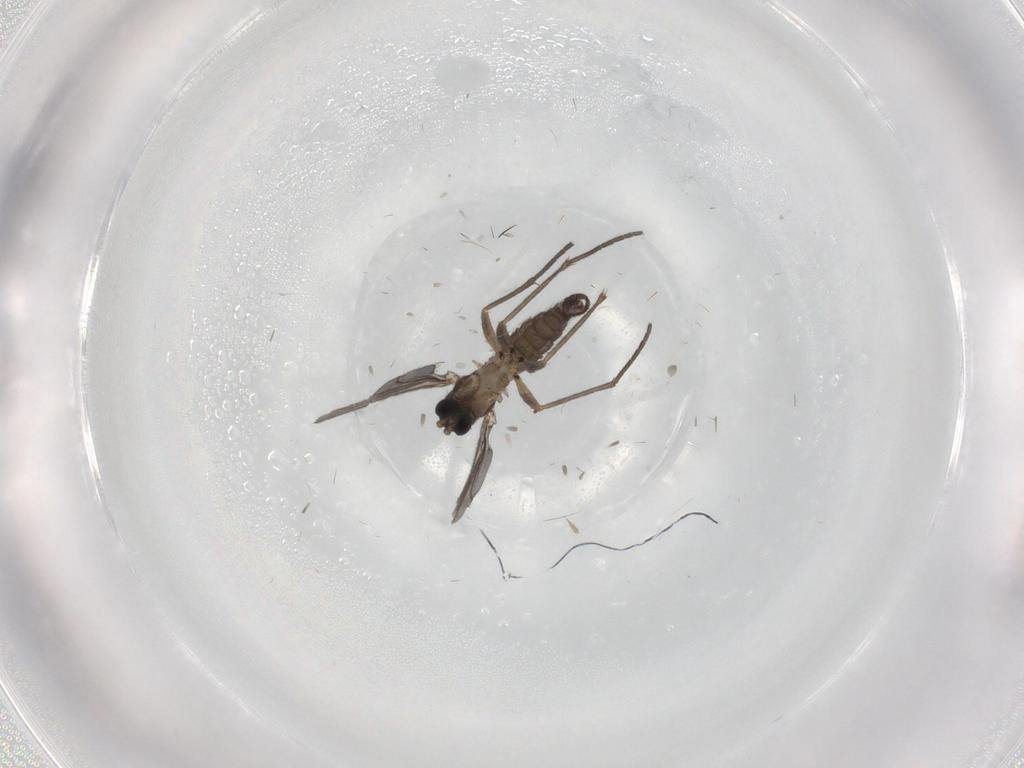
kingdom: Animalia
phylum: Arthropoda
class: Insecta
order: Diptera
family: Sciaridae
